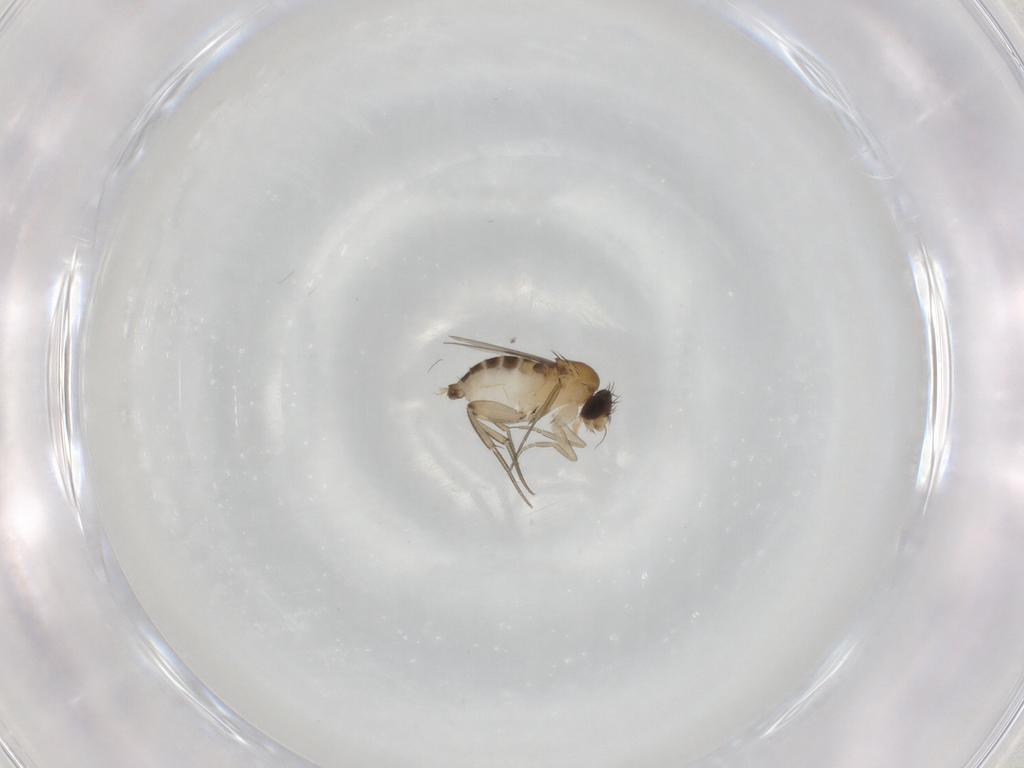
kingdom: Animalia
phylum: Arthropoda
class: Insecta
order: Diptera
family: Phoridae
